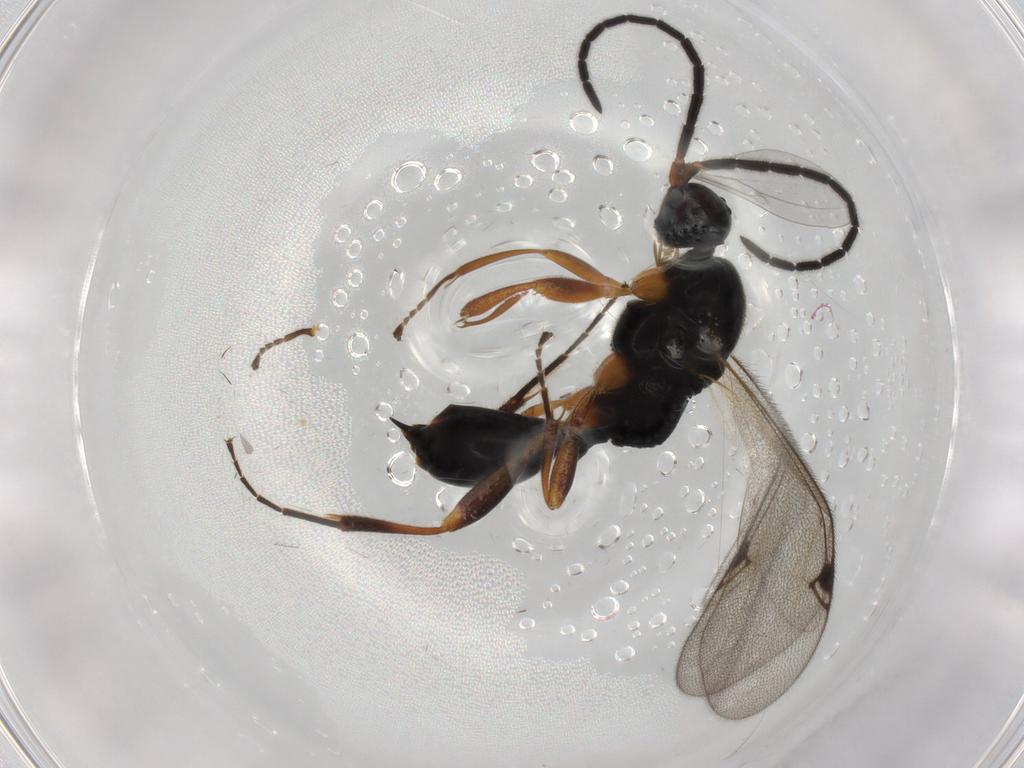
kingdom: Animalia
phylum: Arthropoda
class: Insecta
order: Hymenoptera
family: Proctotrupidae
